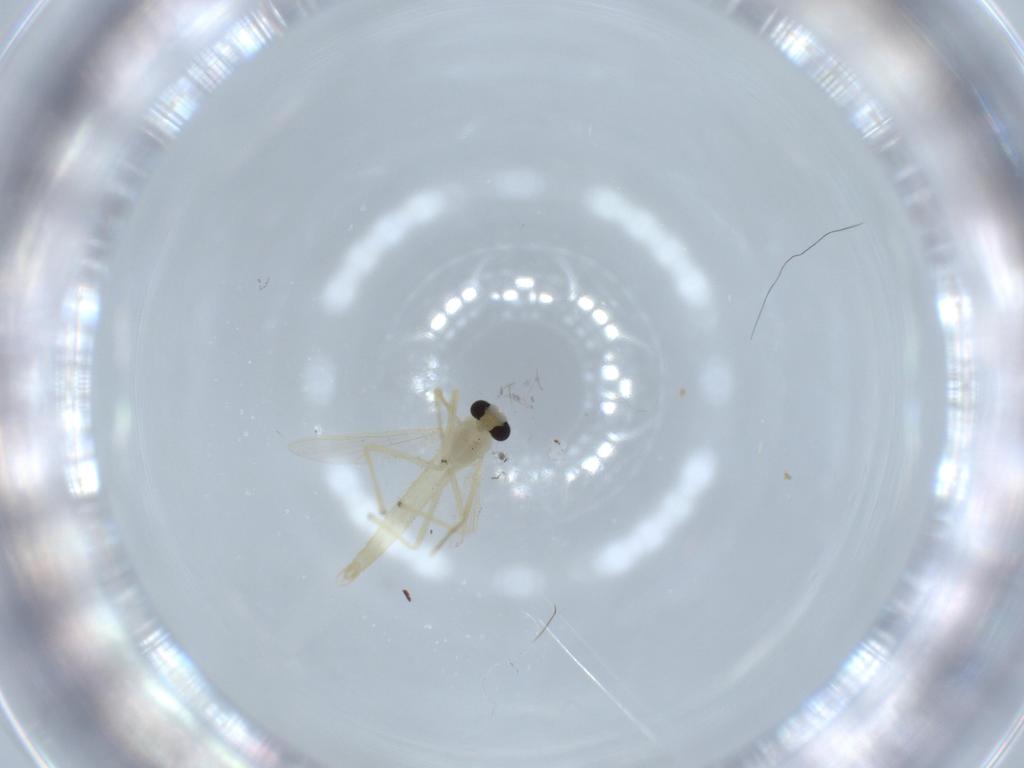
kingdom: Animalia
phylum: Arthropoda
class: Insecta
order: Diptera
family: Chironomidae
